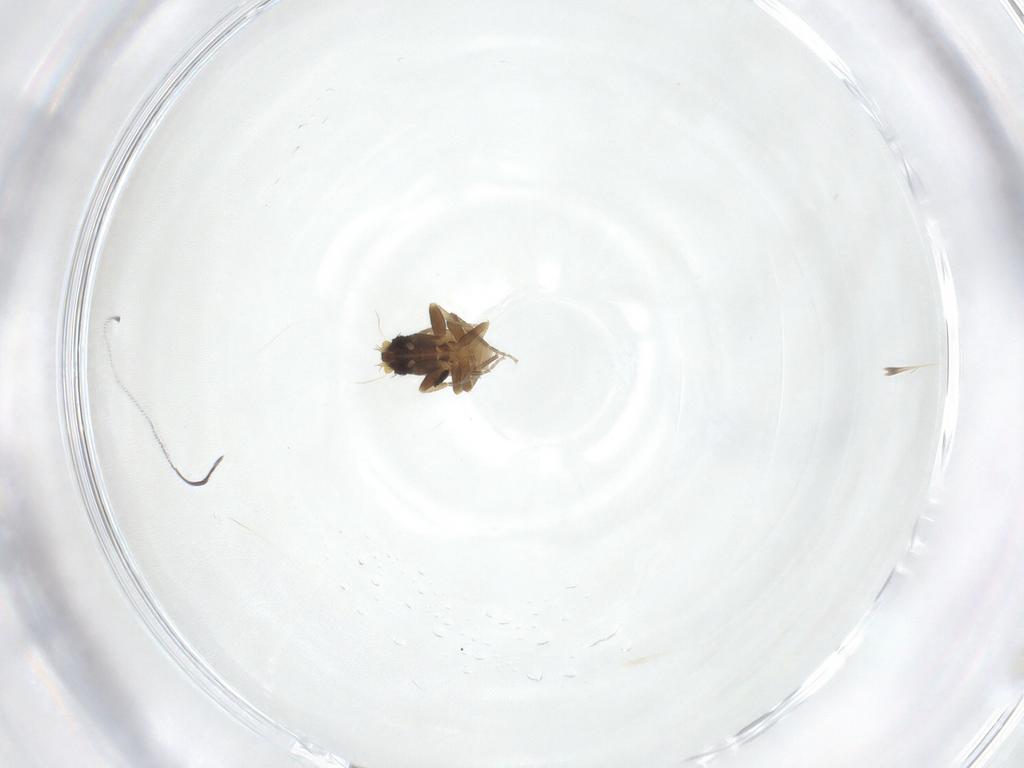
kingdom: Animalia
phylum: Arthropoda
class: Insecta
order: Diptera
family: Phoridae
